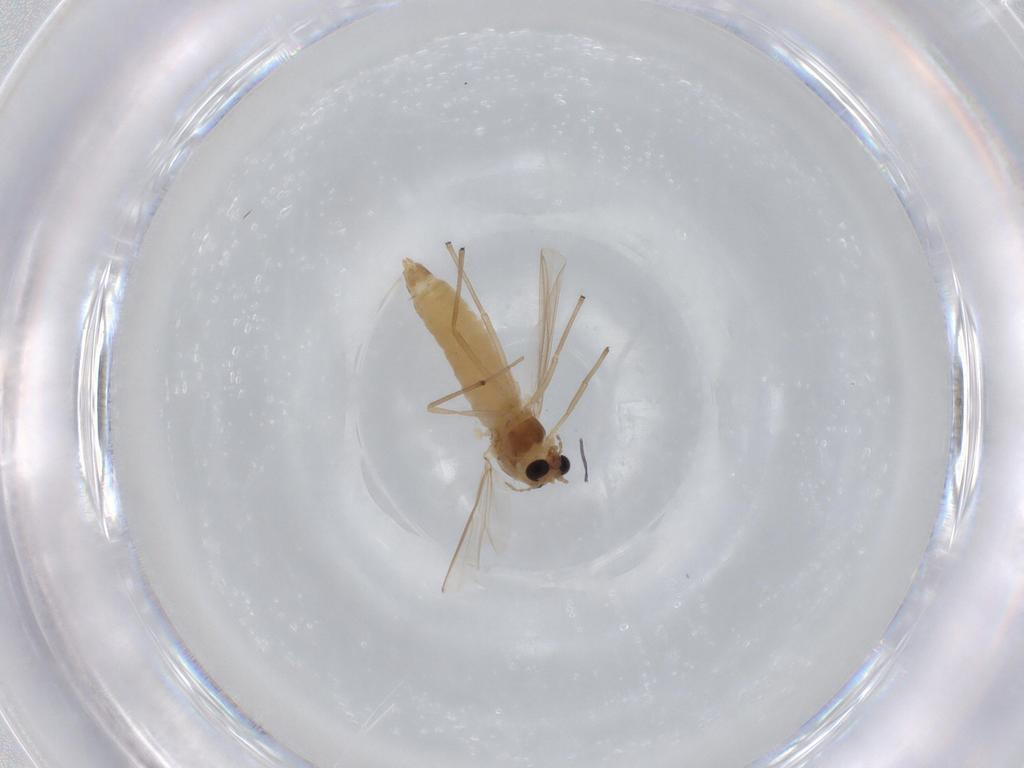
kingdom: Animalia
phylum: Arthropoda
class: Insecta
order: Diptera
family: Chironomidae
